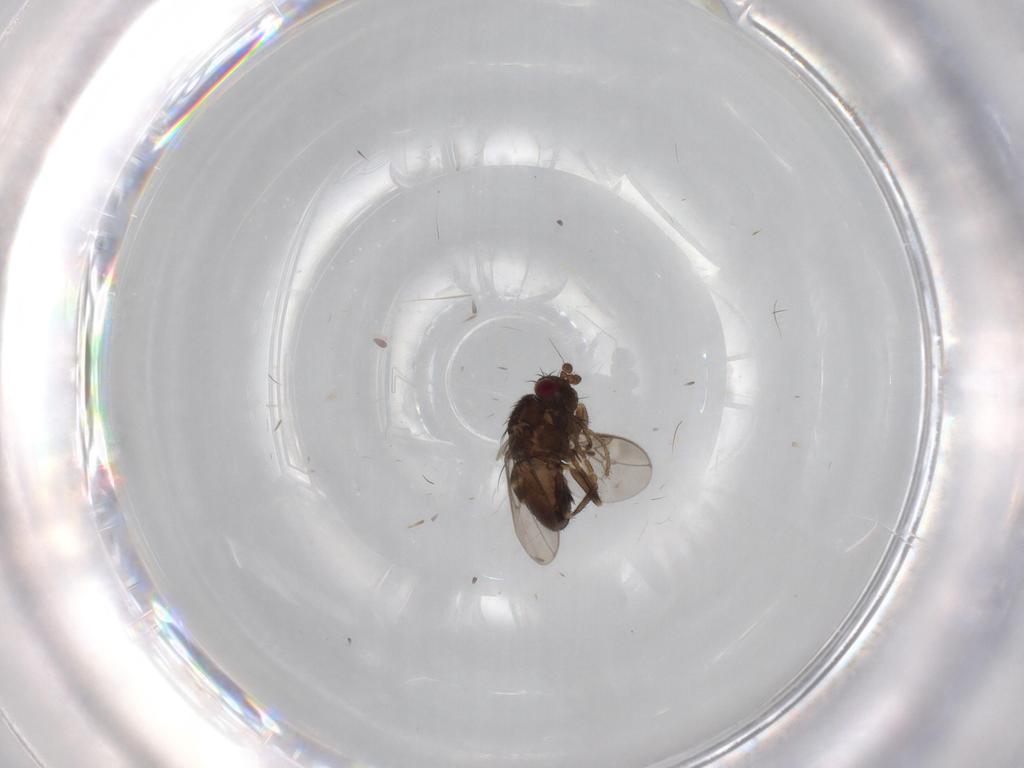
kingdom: Animalia
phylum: Arthropoda
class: Insecta
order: Diptera
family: Sphaeroceridae
